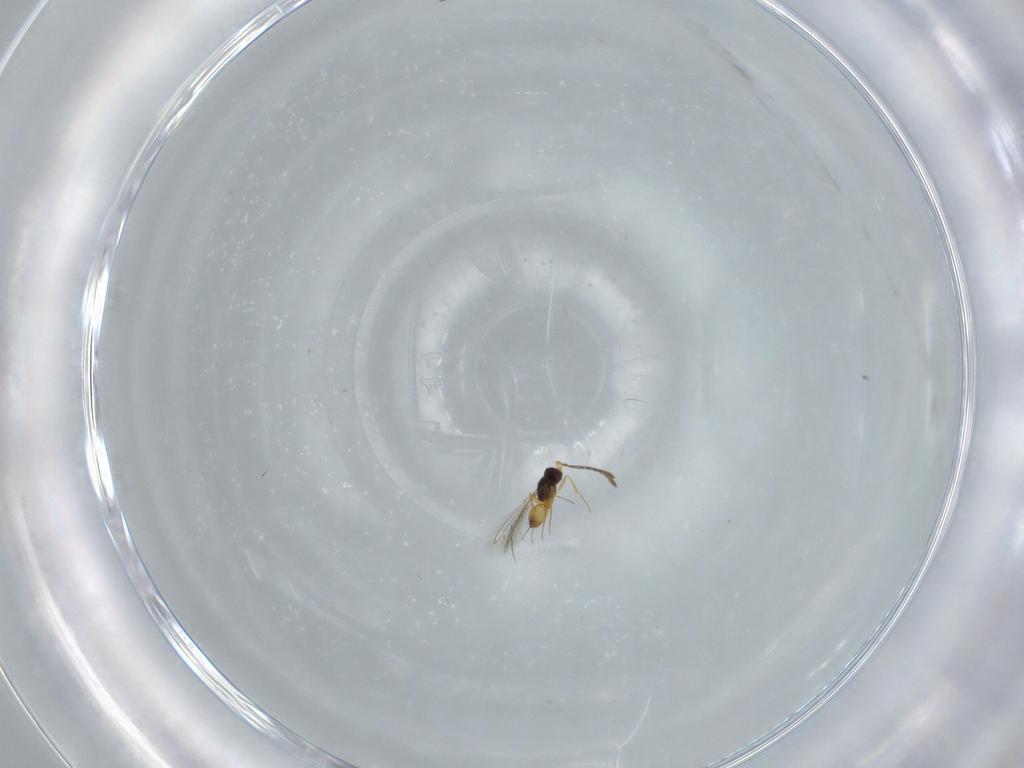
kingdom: Animalia
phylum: Arthropoda
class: Insecta
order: Hymenoptera
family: Mymaridae
